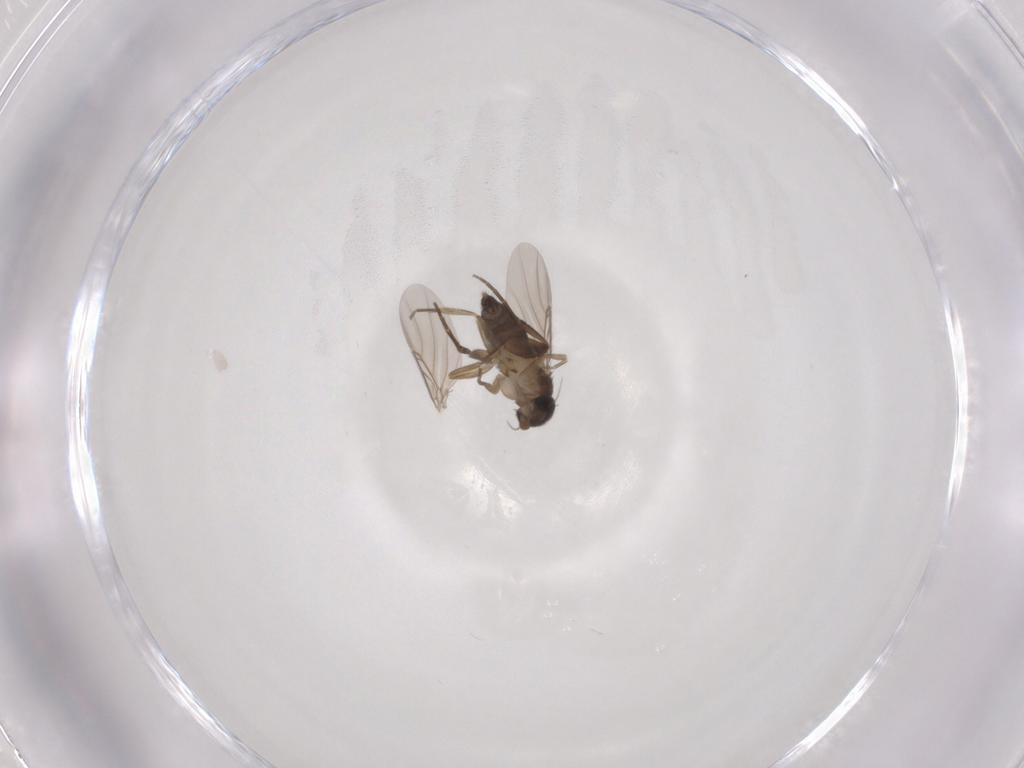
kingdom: Animalia
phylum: Arthropoda
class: Insecta
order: Diptera
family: Phoridae
